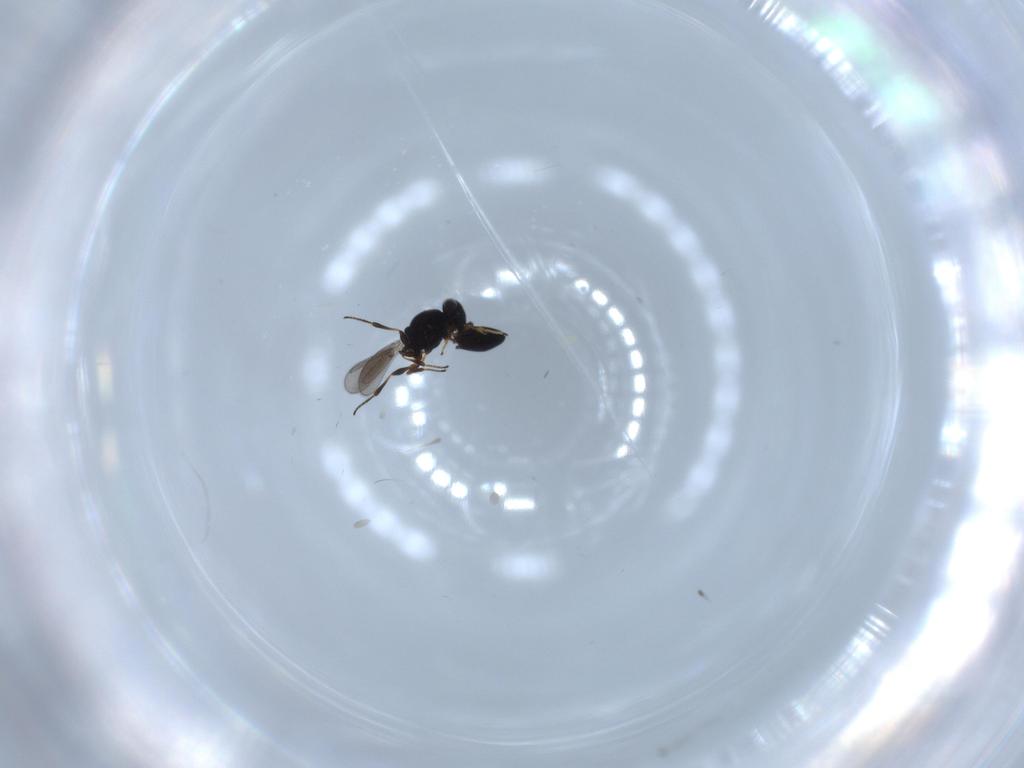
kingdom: Animalia
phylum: Arthropoda
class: Insecta
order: Hymenoptera
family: Platygastridae
